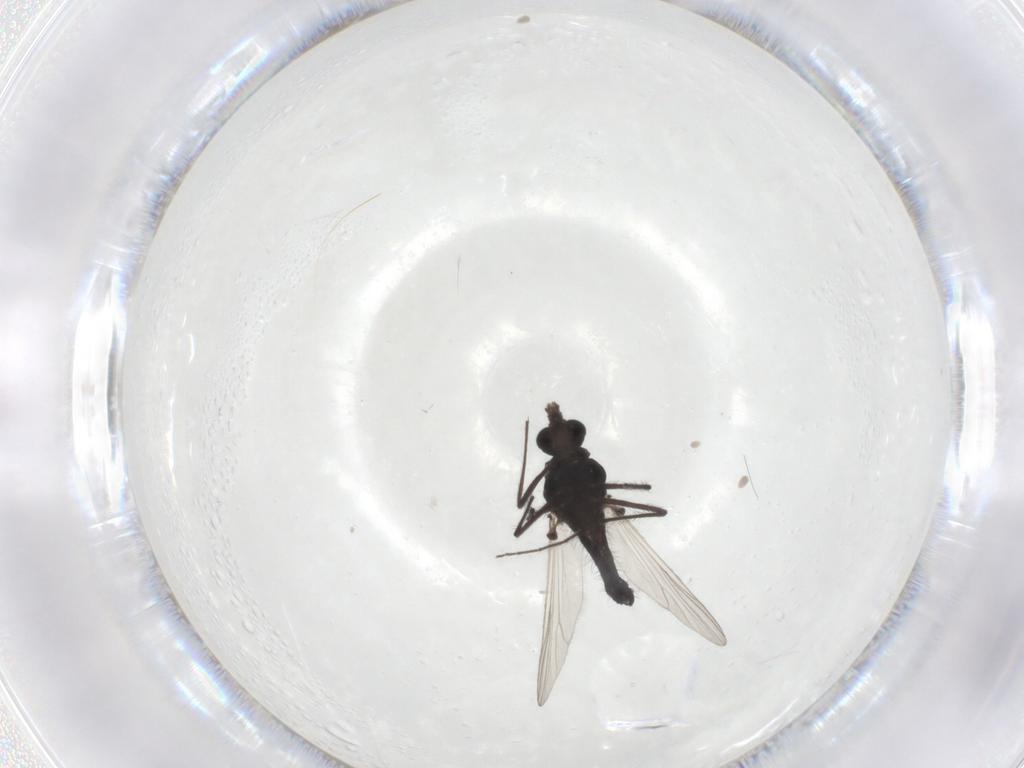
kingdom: Animalia
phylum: Arthropoda
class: Insecta
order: Diptera
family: Chironomidae
